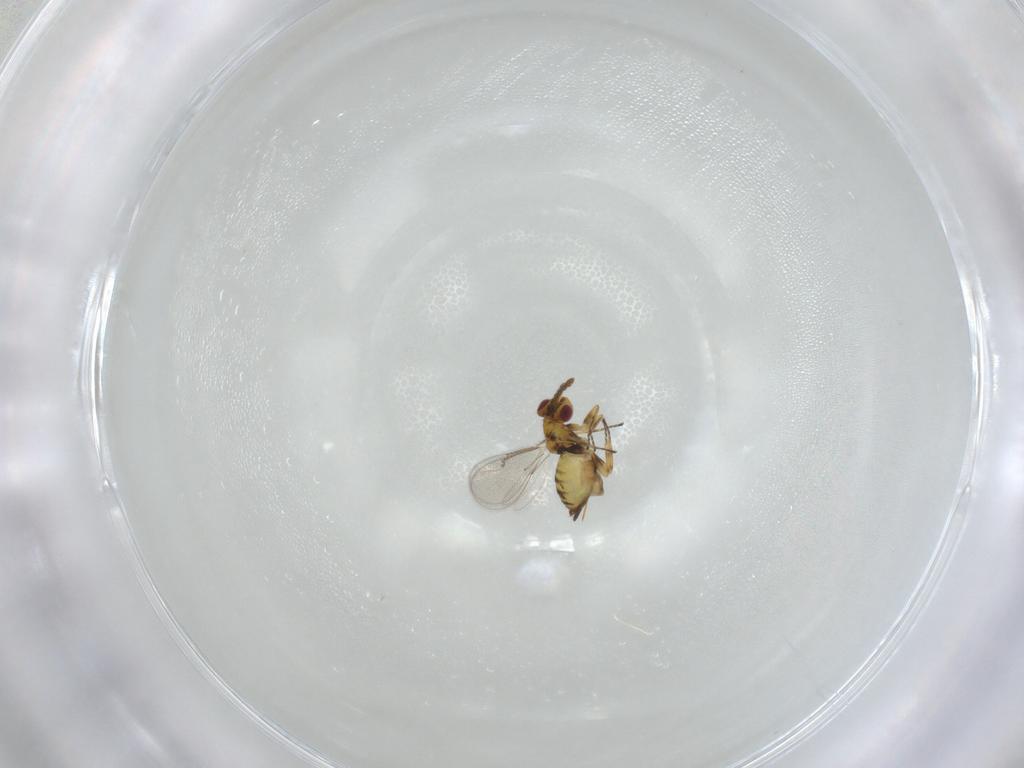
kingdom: Animalia
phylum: Arthropoda
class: Insecta
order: Hymenoptera
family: Eulophidae
